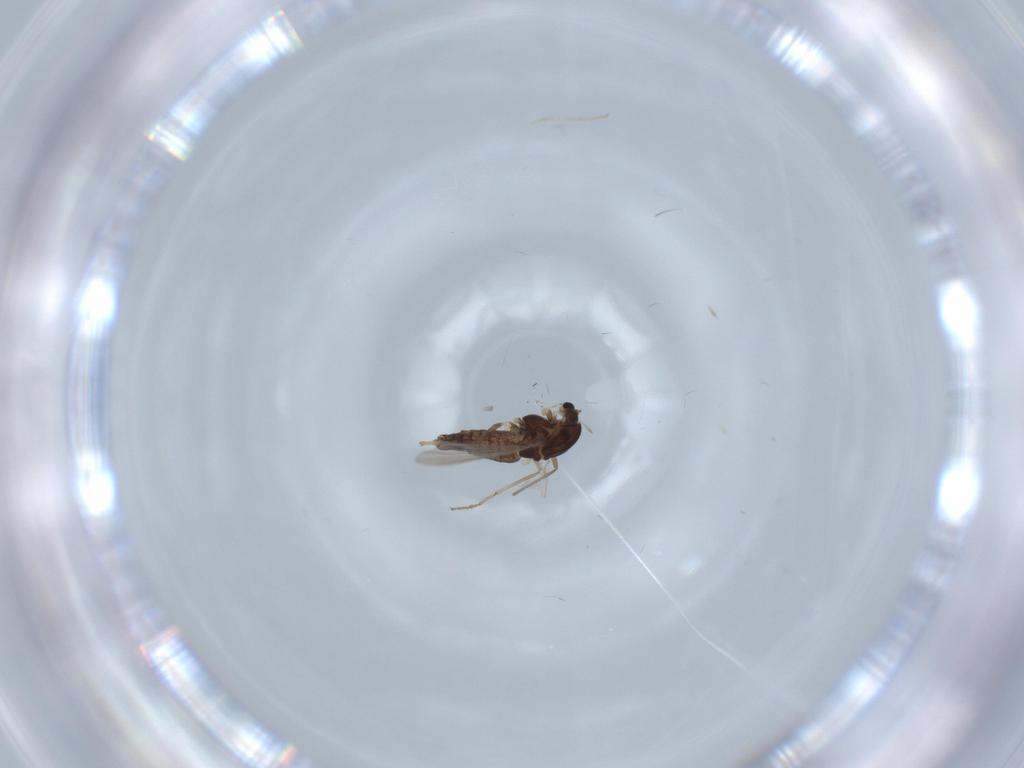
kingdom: Animalia
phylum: Arthropoda
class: Insecta
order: Diptera
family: Chironomidae
